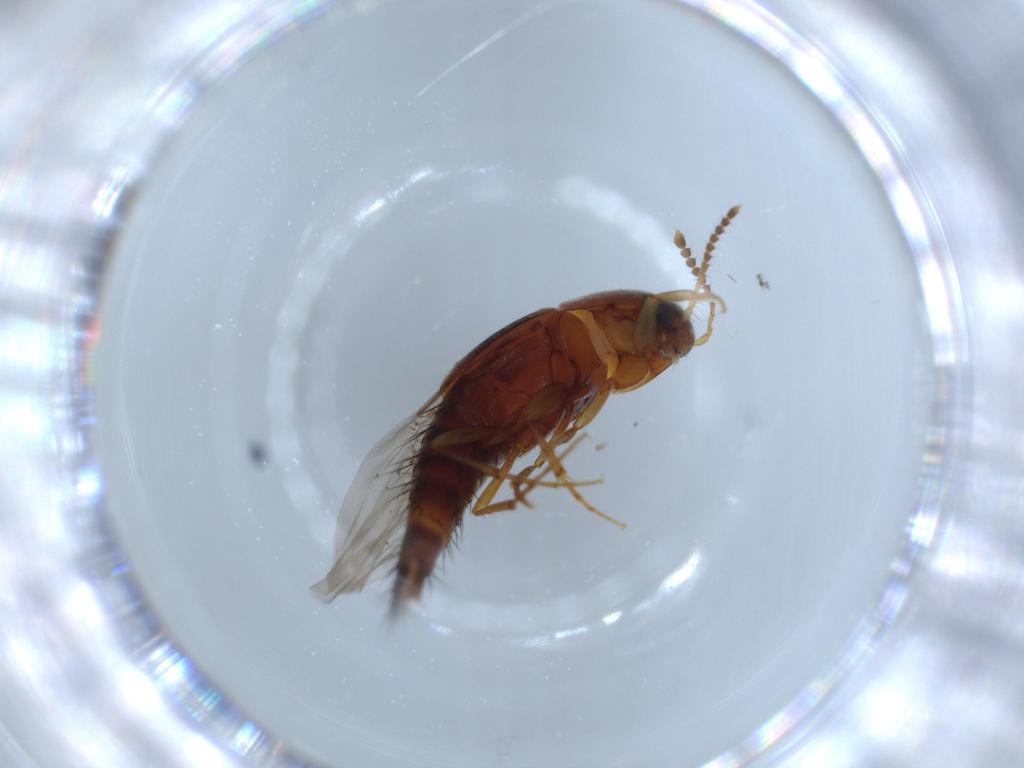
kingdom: Animalia
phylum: Arthropoda
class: Insecta
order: Coleoptera
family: Staphylinidae
